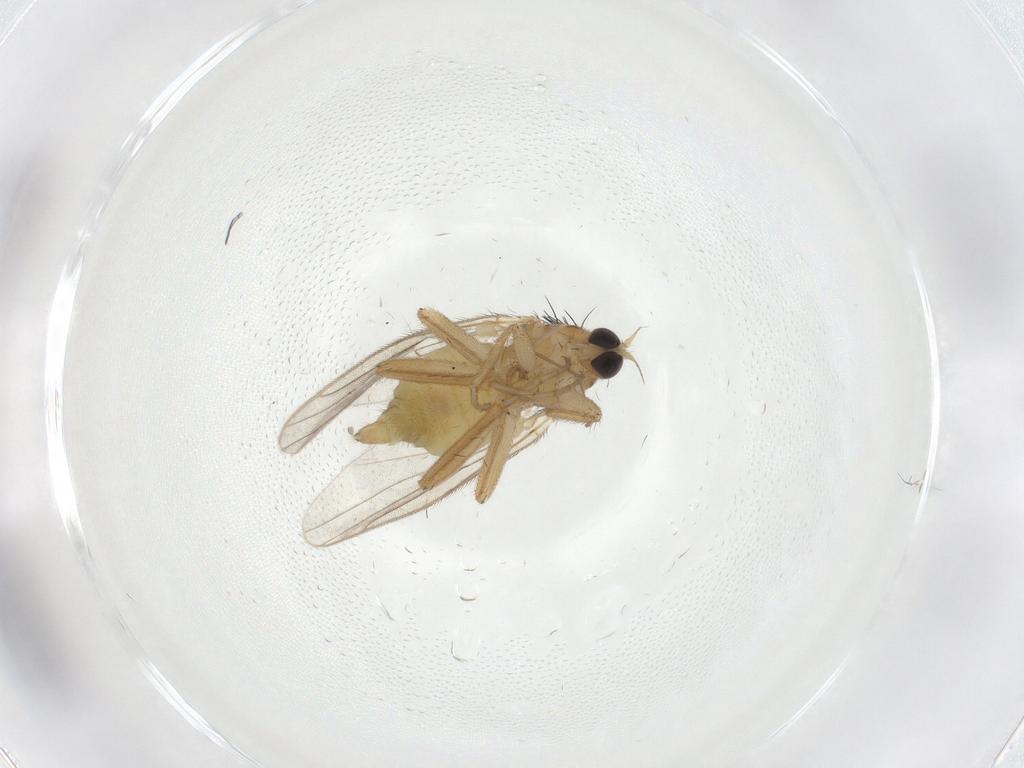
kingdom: Animalia
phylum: Arthropoda
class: Insecta
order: Diptera
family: Hybotidae
